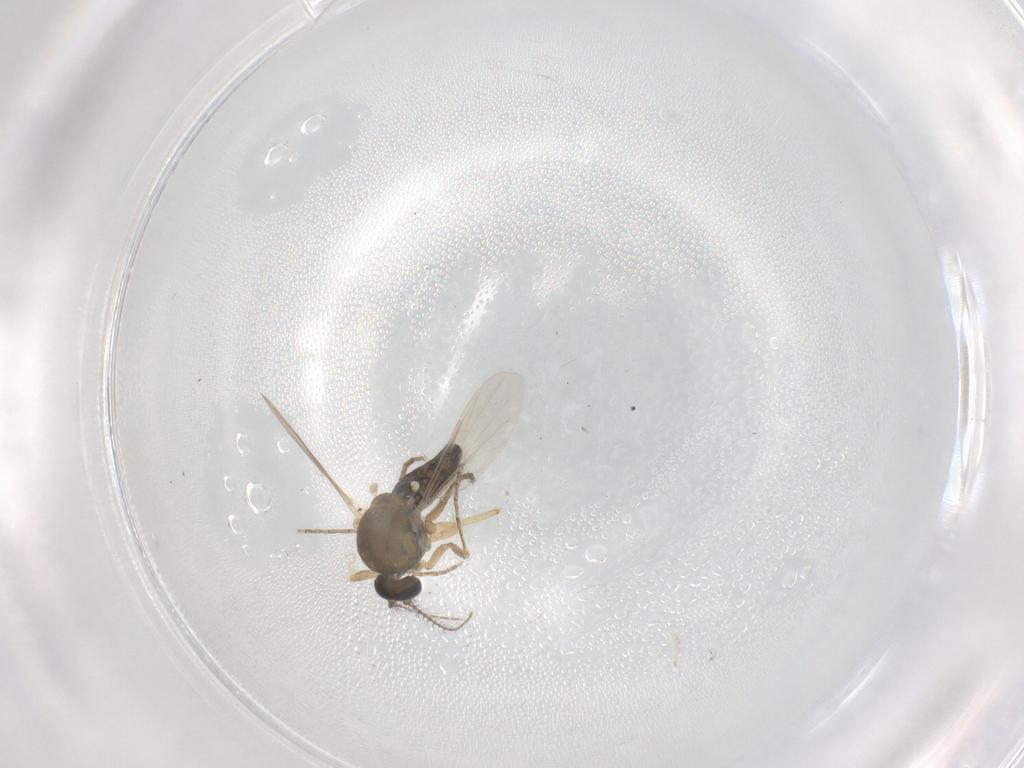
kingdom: Animalia
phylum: Arthropoda
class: Insecta
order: Diptera
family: Ceratopogonidae
